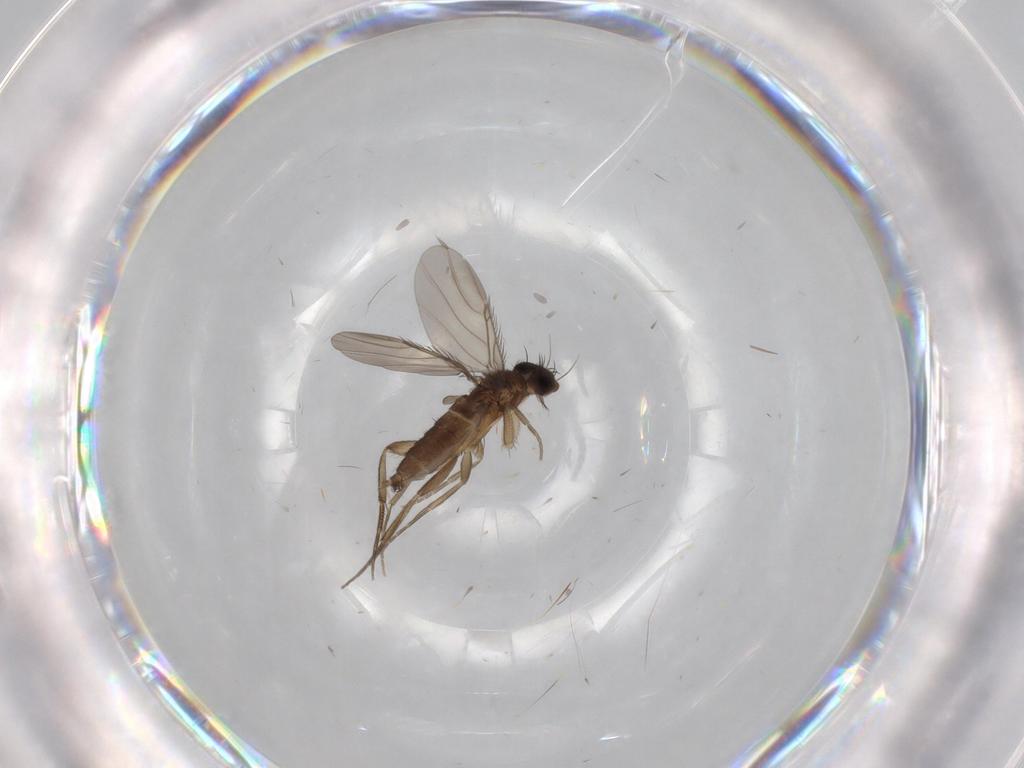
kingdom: Animalia
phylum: Arthropoda
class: Insecta
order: Diptera
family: Phoridae
